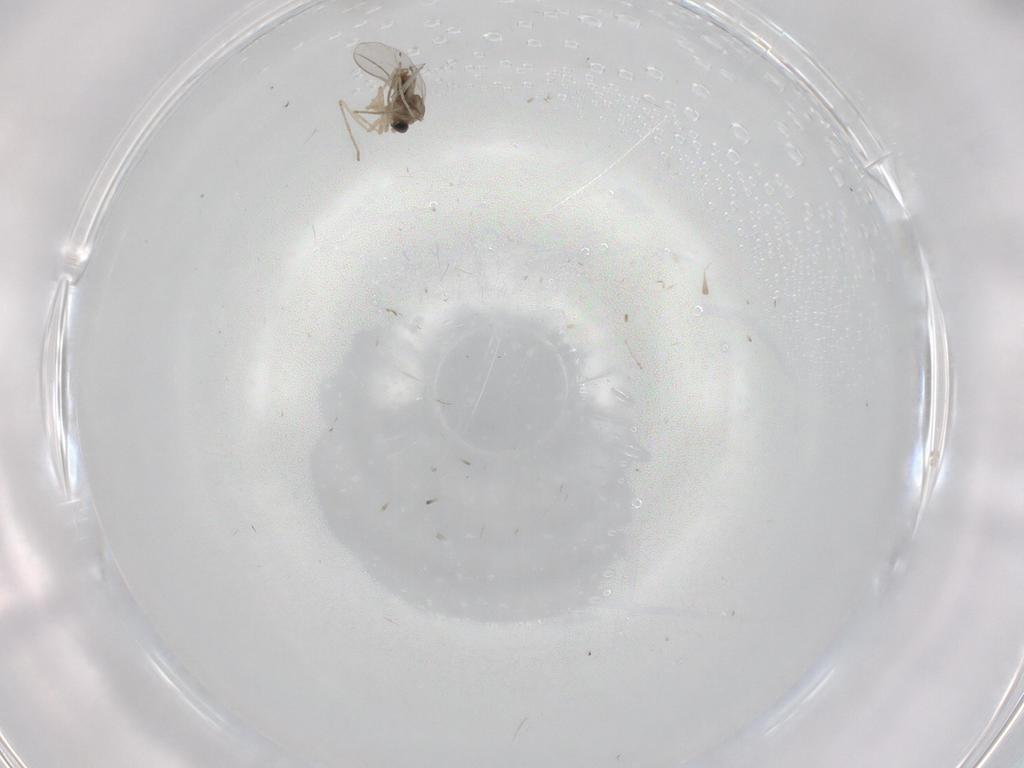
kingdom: Animalia
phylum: Arthropoda
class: Insecta
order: Diptera
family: Cecidomyiidae
